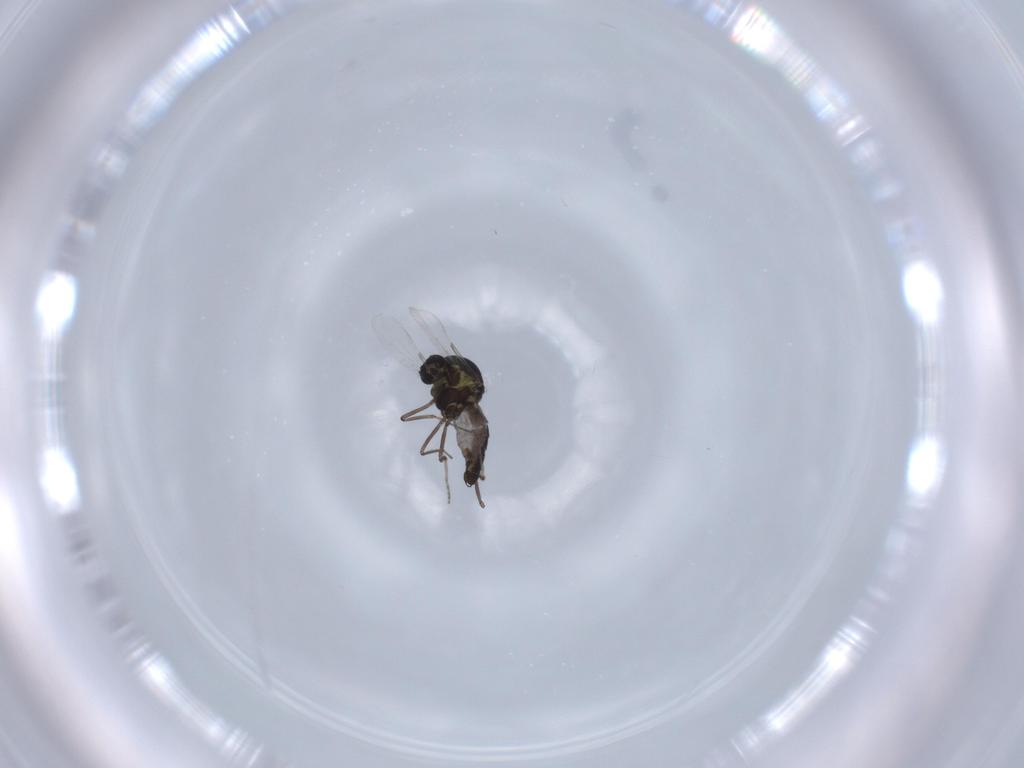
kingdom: Animalia
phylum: Arthropoda
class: Insecta
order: Diptera
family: Ceratopogonidae
